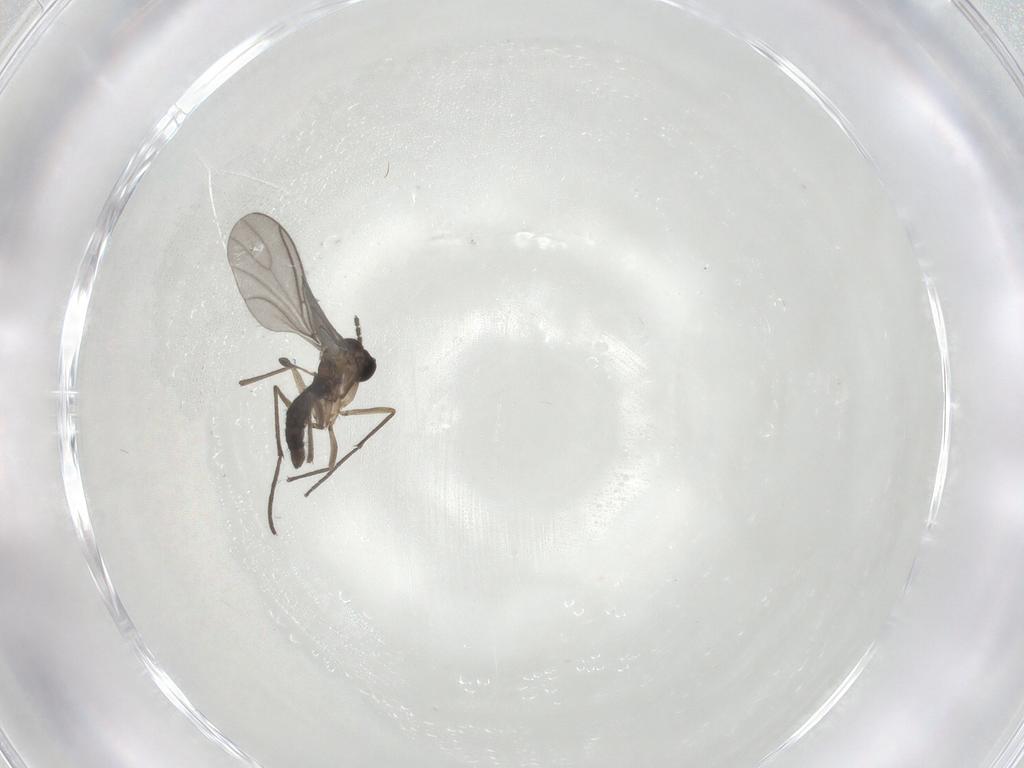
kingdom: Animalia
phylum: Arthropoda
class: Insecta
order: Diptera
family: Sciaridae
